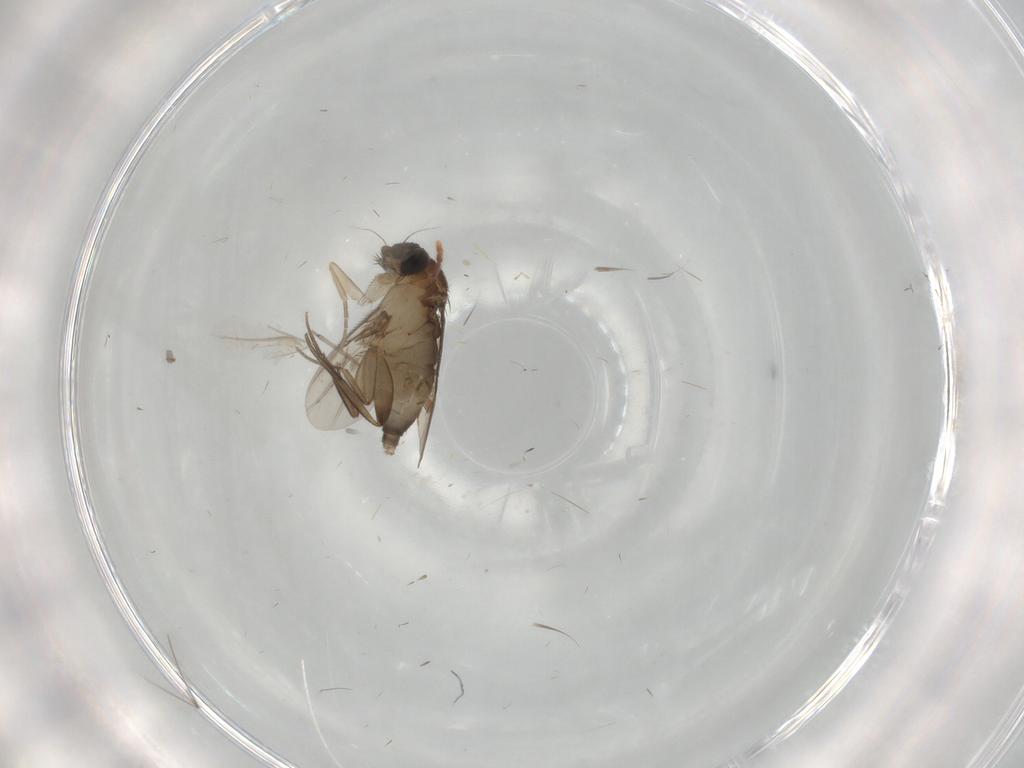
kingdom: Animalia
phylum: Arthropoda
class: Insecta
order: Diptera
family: Phoridae
